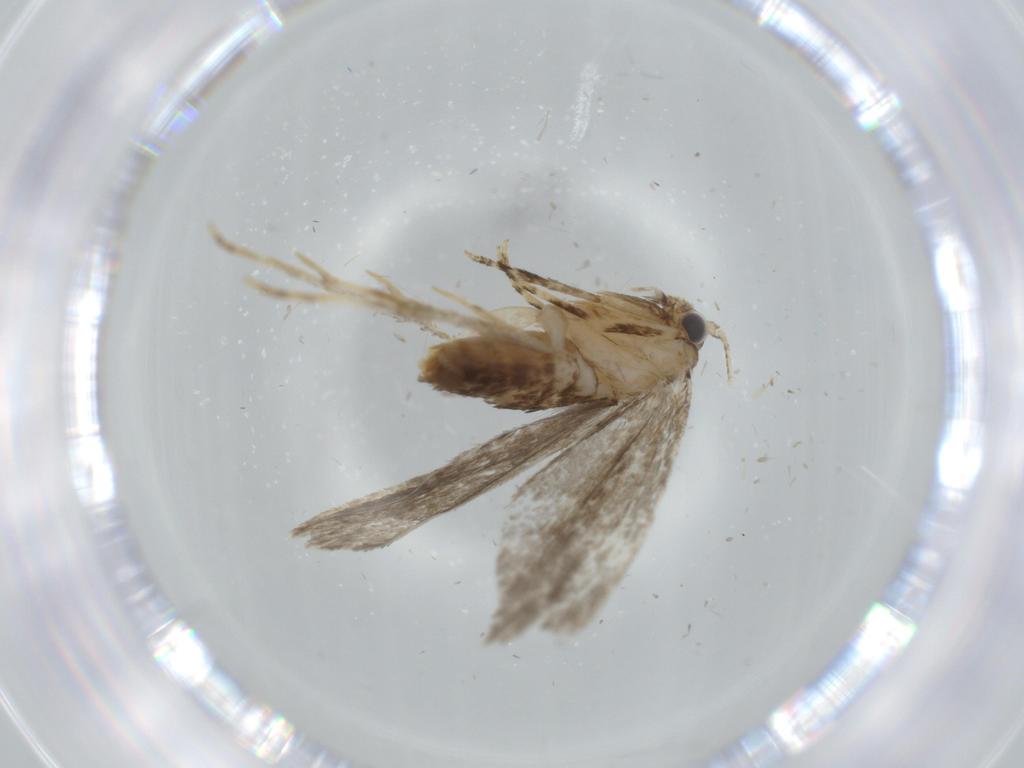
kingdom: Animalia
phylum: Arthropoda
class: Insecta
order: Lepidoptera
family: Tineidae
